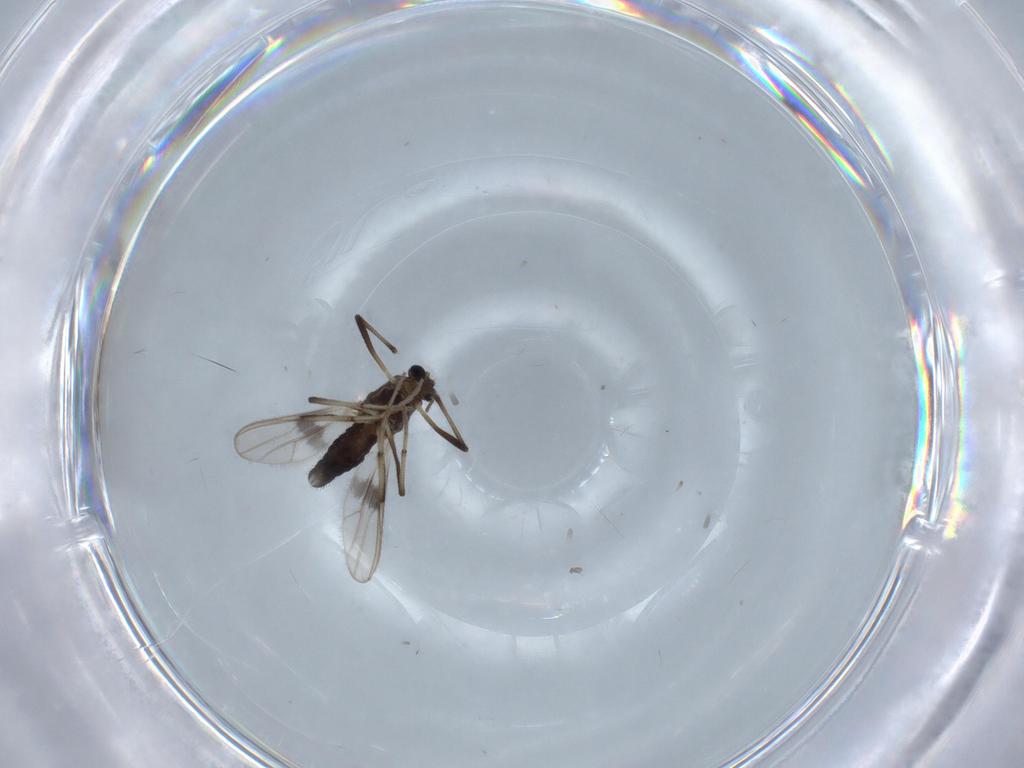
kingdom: Animalia
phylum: Arthropoda
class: Insecta
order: Diptera
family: Chironomidae
